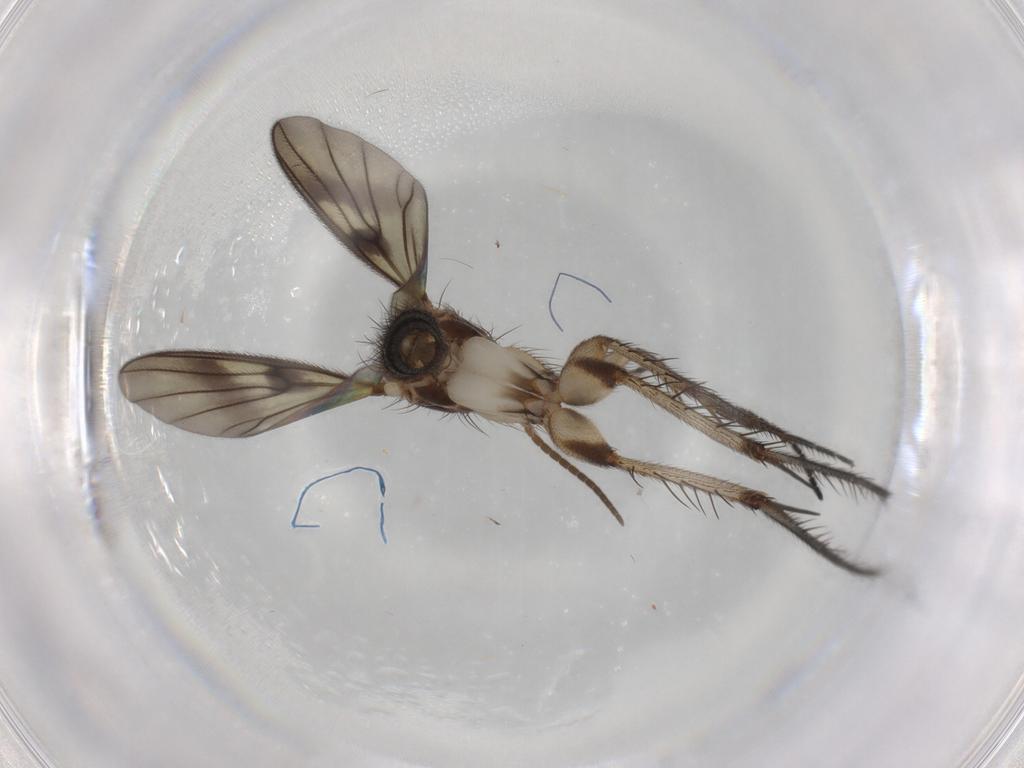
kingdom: Animalia
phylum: Arthropoda
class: Insecta
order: Diptera
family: Phoridae
